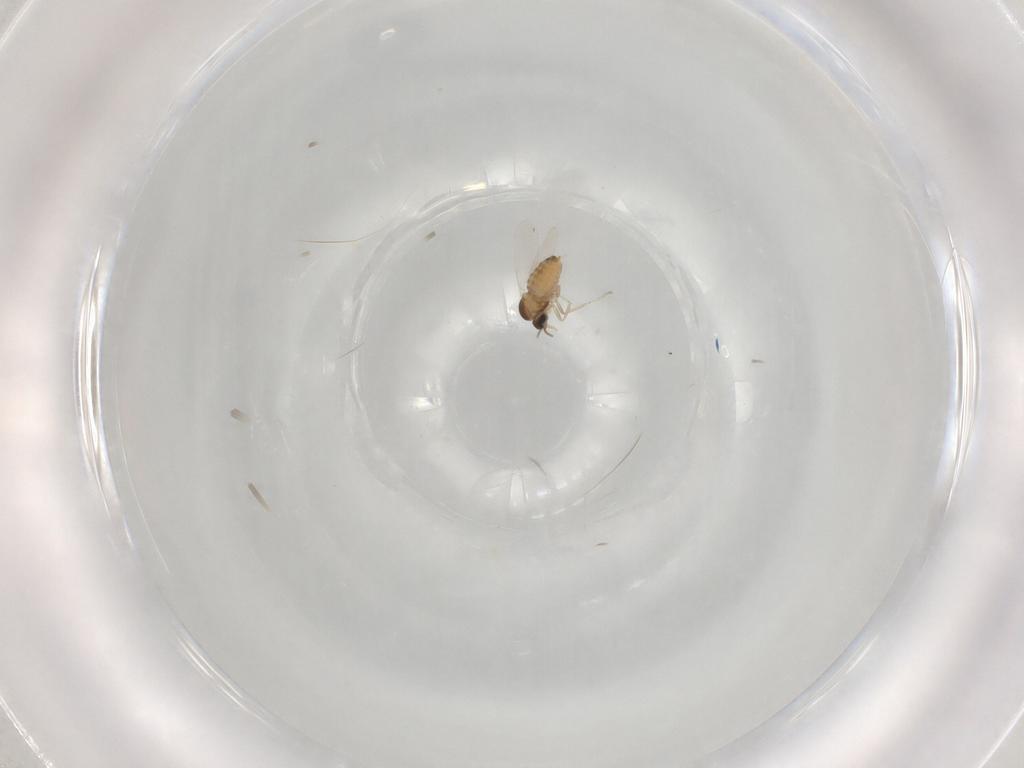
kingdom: Animalia
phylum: Arthropoda
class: Insecta
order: Diptera
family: Cecidomyiidae
